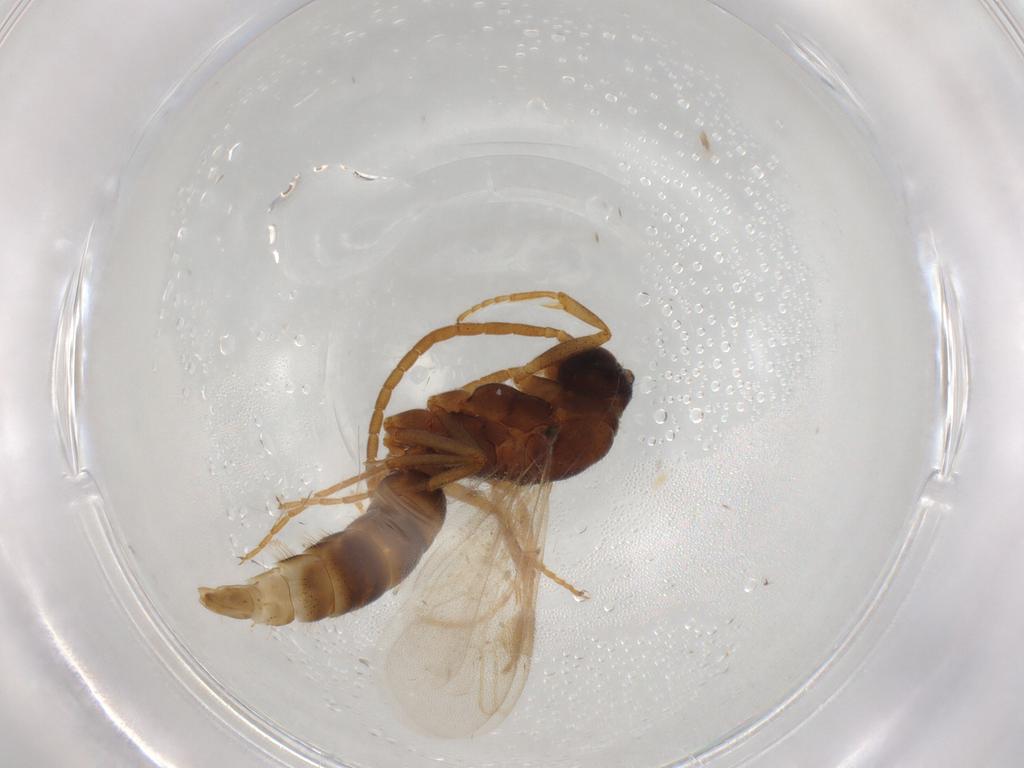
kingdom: Animalia
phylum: Arthropoda
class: Insecta
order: Hymenoptera
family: Formicidae
